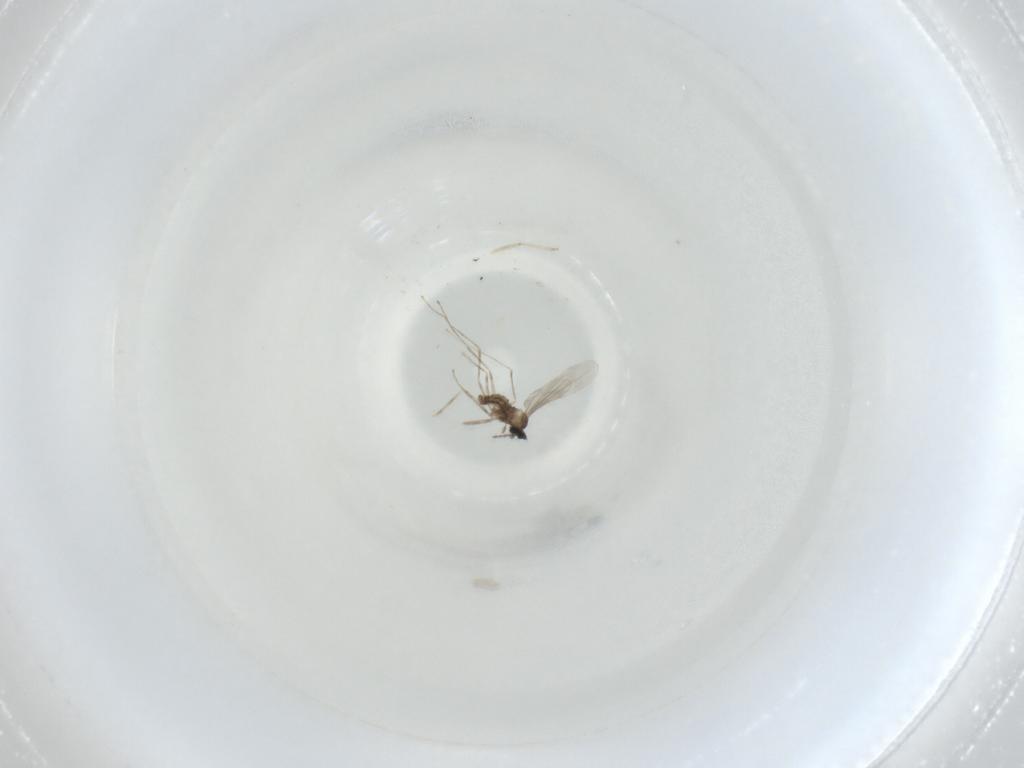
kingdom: Animalia
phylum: Arthropoda
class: Insecta
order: Diptera
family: Cecidomyiidae
